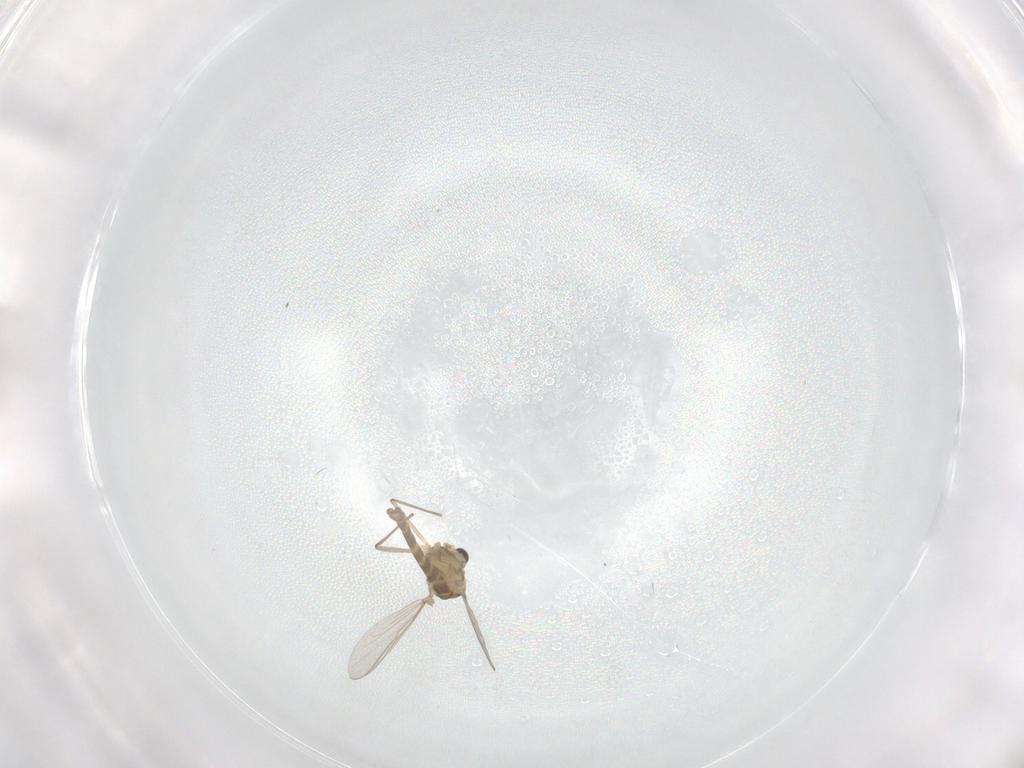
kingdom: Animalia
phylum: Arthropoda
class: Insecta
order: Diptera
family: Chironomidae
